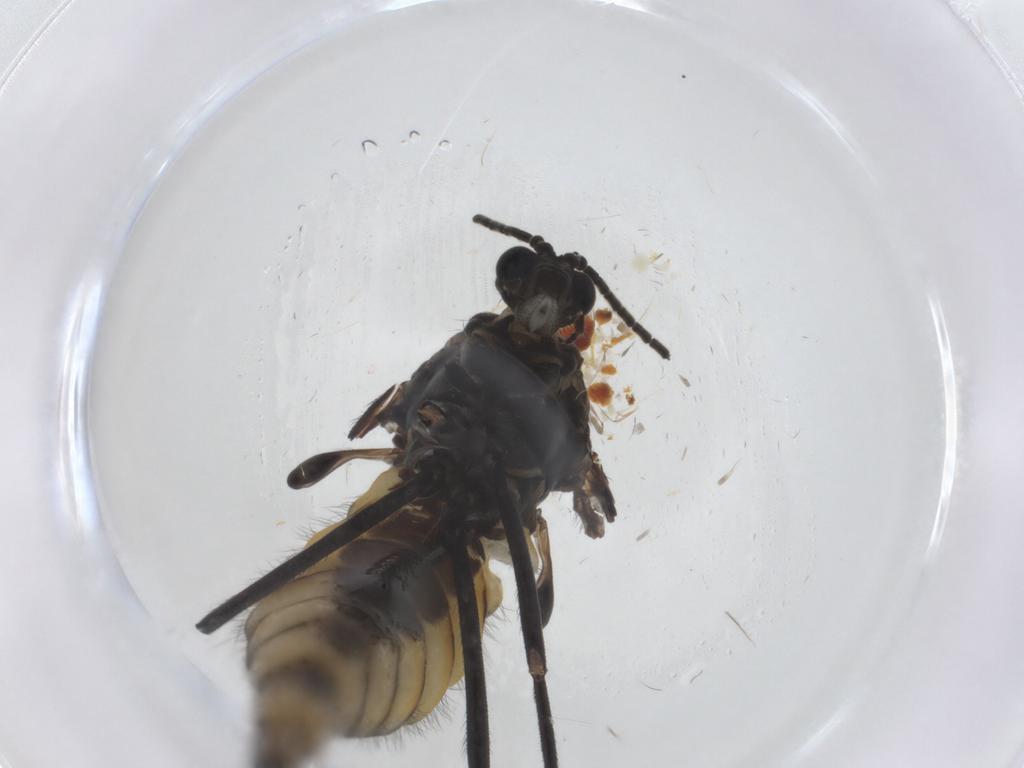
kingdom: Animalia
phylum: Arthropoda
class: Insecta
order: Diptera
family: Sciaridae
